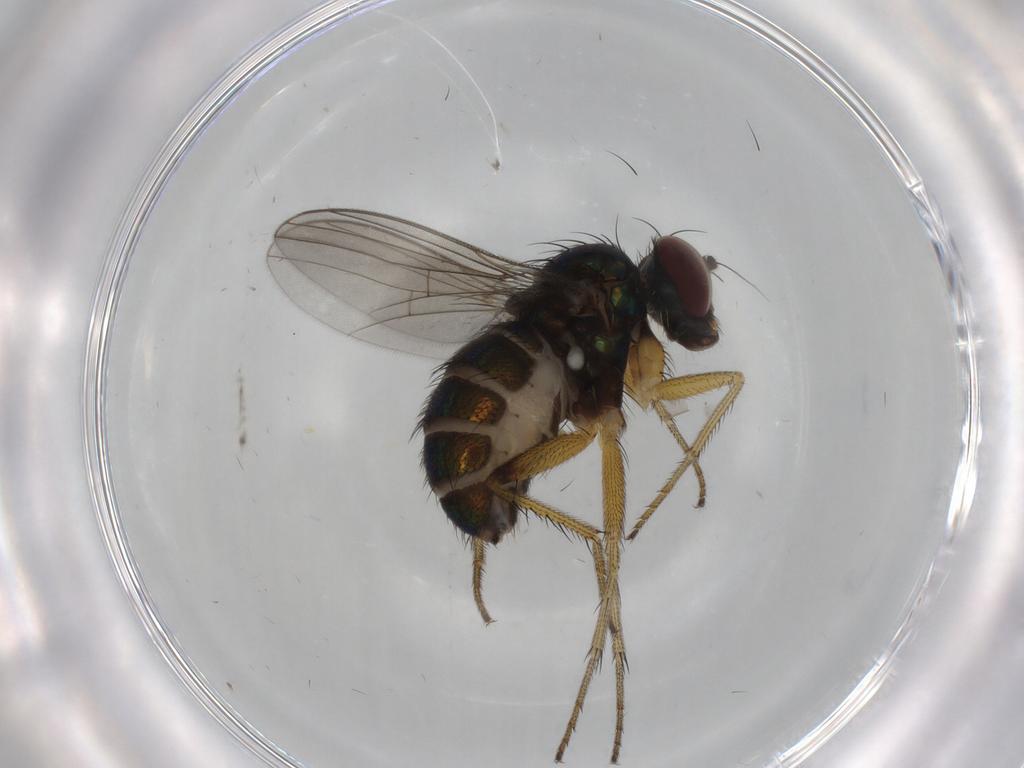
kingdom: Animalia
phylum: Arthropoda
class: Insecta
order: Diptera
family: Dolichopodidae
